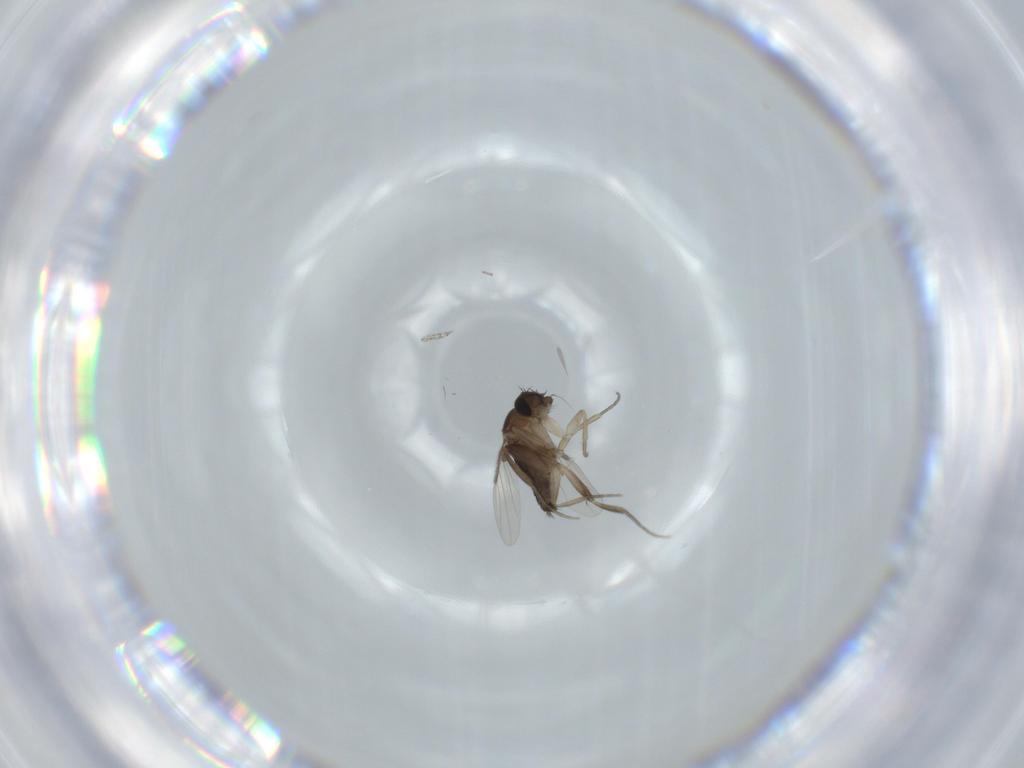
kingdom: Animalia
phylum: Arthropoda
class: Insecta
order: Diptera
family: Phoridae
